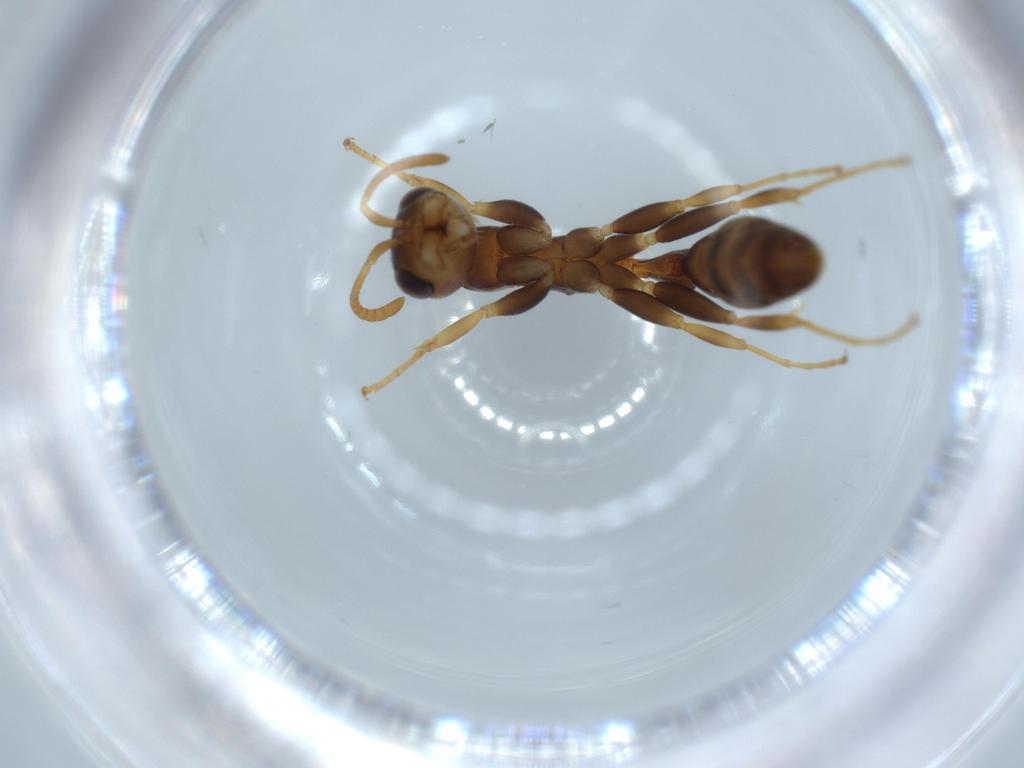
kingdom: Animalia
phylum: Arthropoda
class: Insecta
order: Hymenoptera
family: Formicidae
